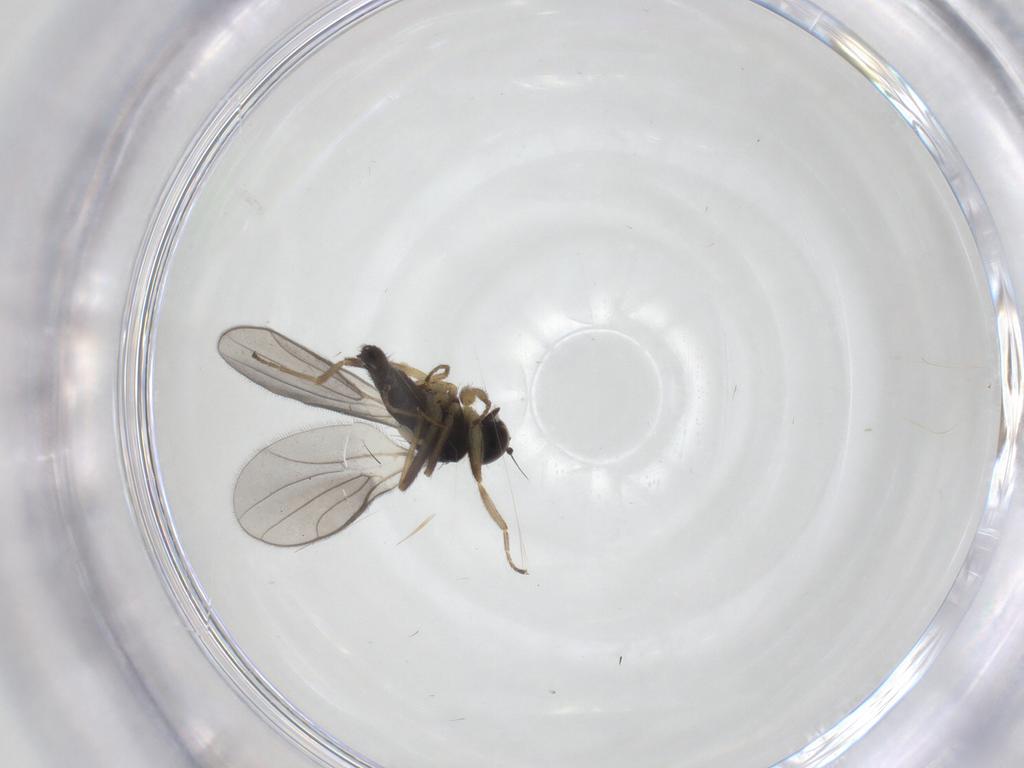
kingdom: Animalia
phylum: Arthropoda
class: Insecta
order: Diptera
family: Hybotidae
